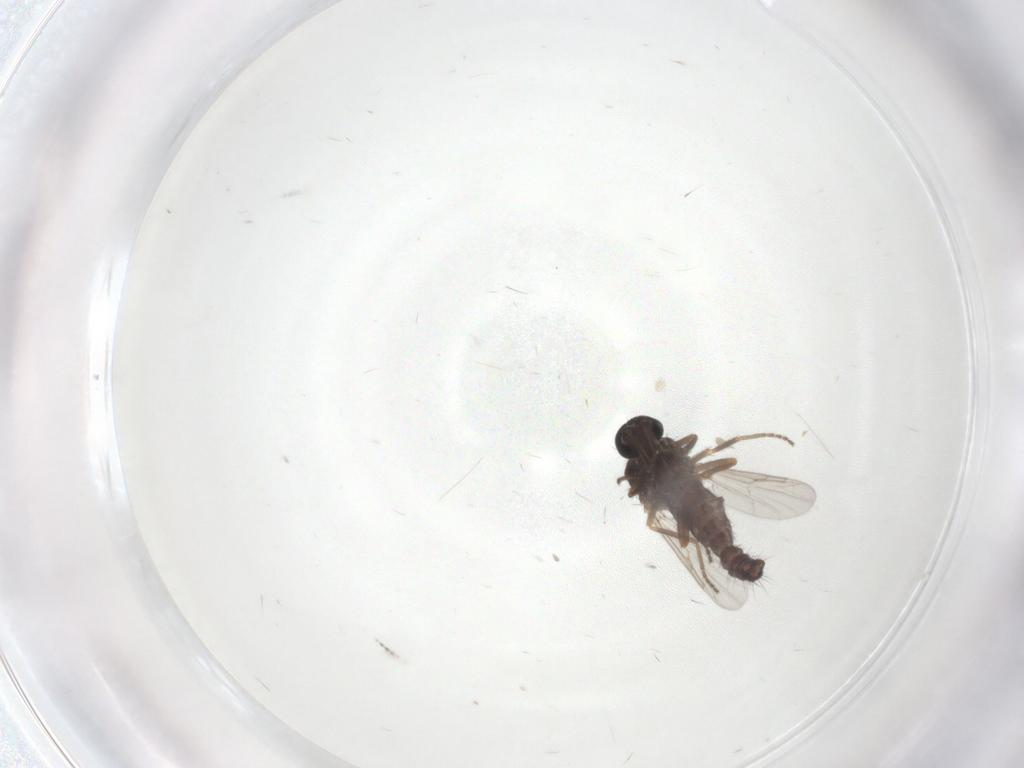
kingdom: Animalia
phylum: Arthropoda
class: Insecta
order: Diptera
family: Ceratopogonidae
